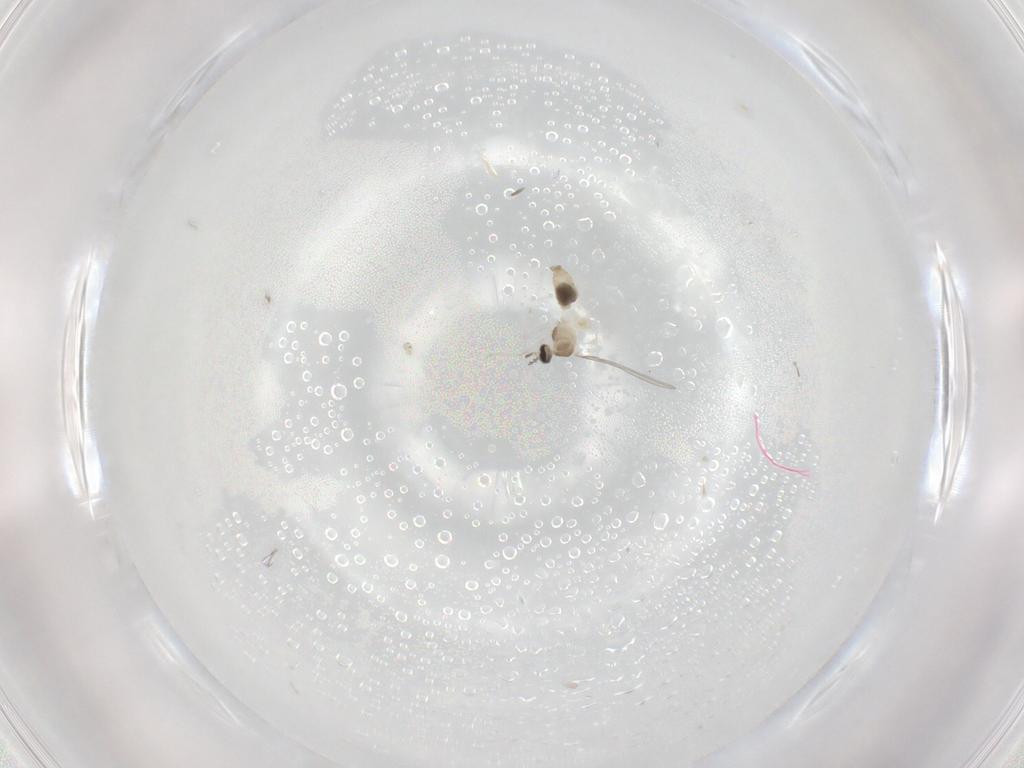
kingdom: Animalia
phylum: Arthropoda
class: Insecta
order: Diptera
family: Cecidomyiidae
